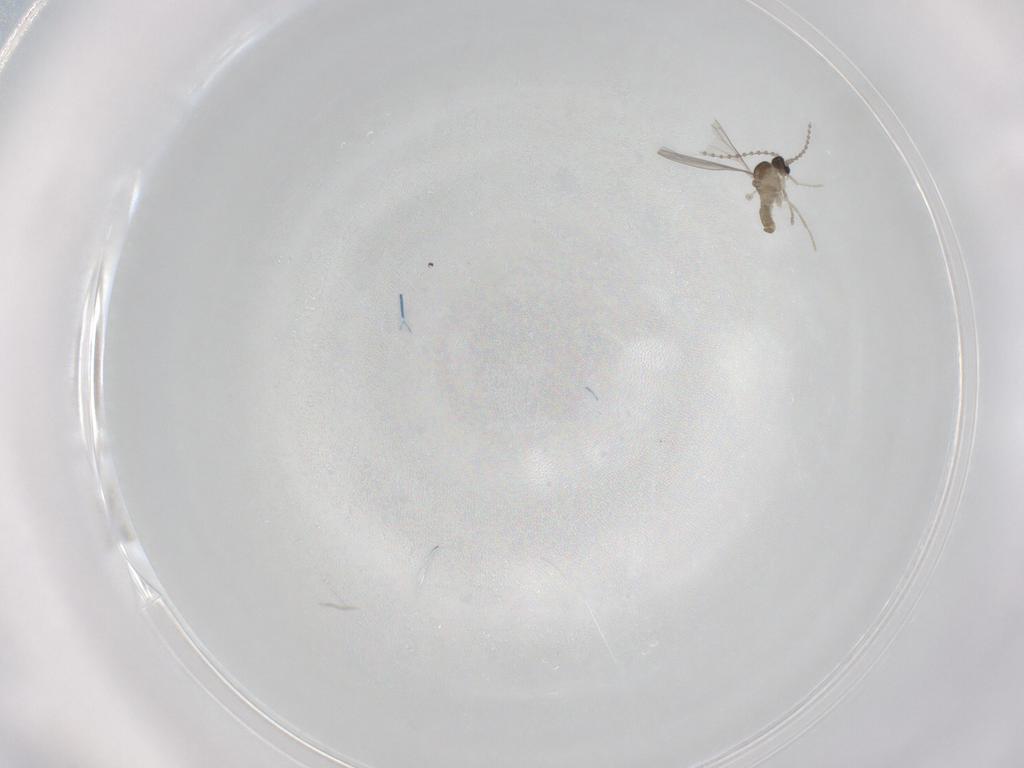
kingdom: Animalia
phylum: Arthropoda
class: Insecta
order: Diptera
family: Cecidomyiidae
